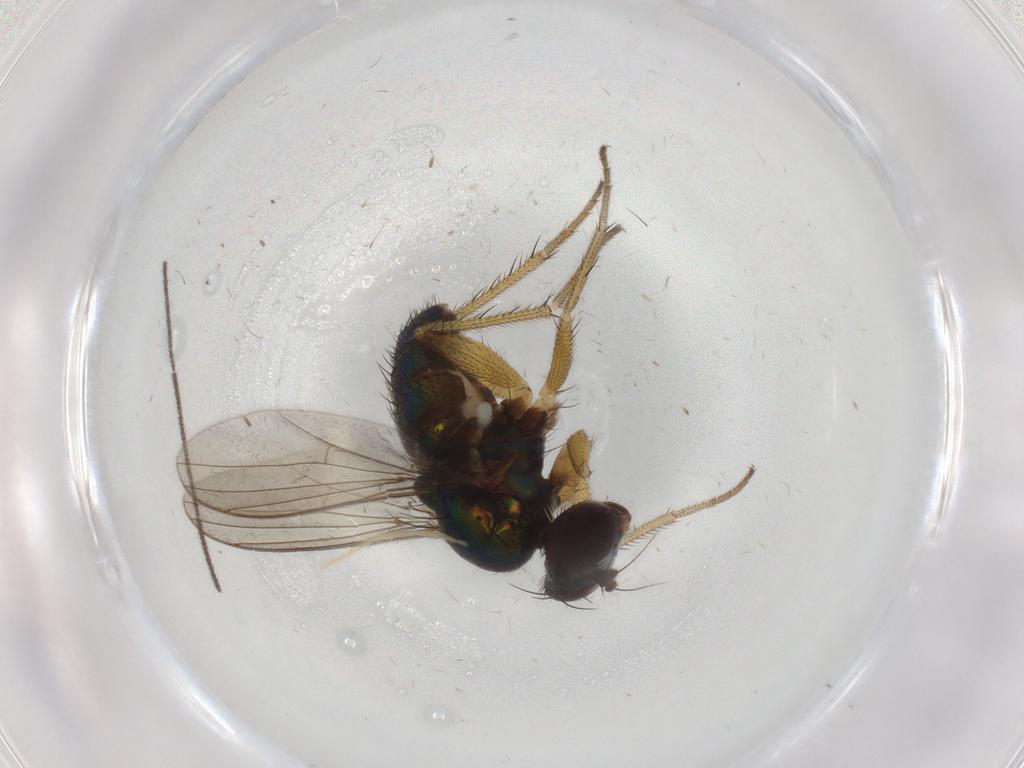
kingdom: Animalia
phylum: Arthropoda
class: Insecta
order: Diptera
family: Dolichopodidae
